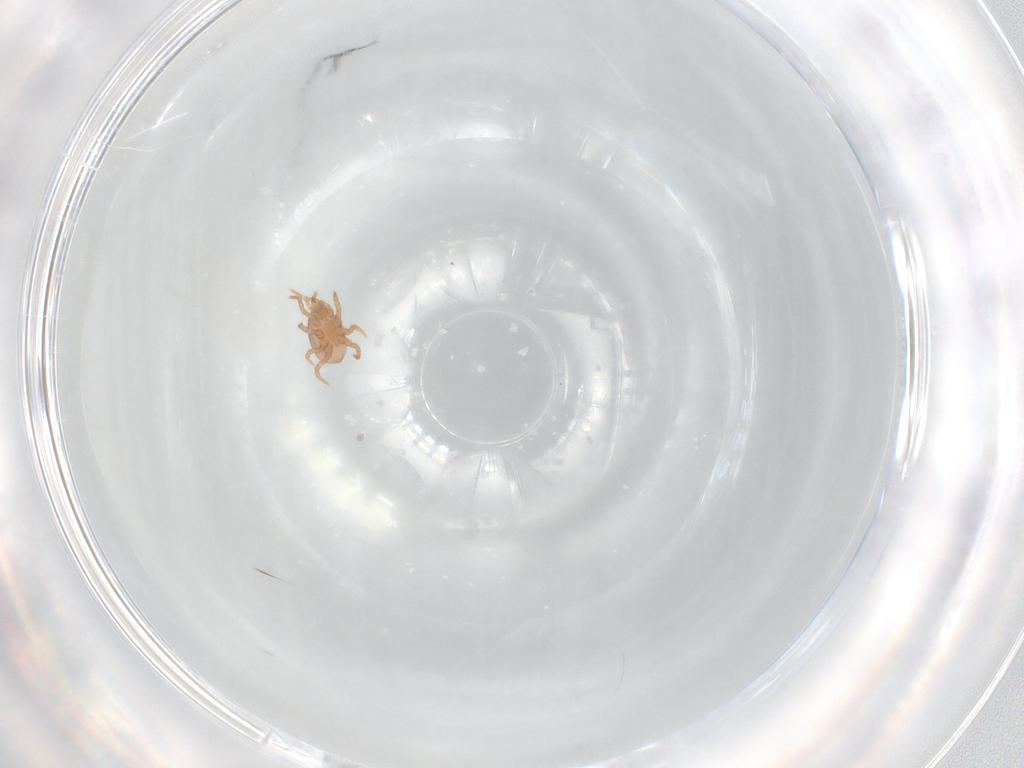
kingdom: Animalia
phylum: Arthropoda
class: Arachnida
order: Mesostigmata
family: Eviphididae
